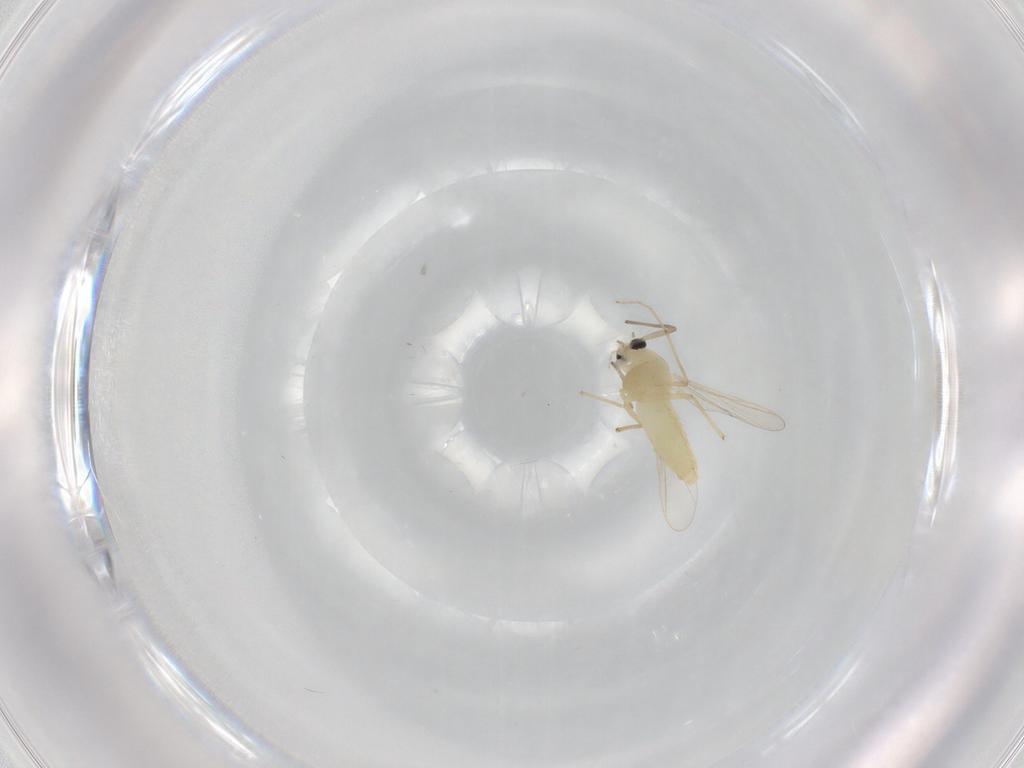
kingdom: Animalia
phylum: Arthropoda
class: Insecta
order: Diptera
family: Chironomidae
